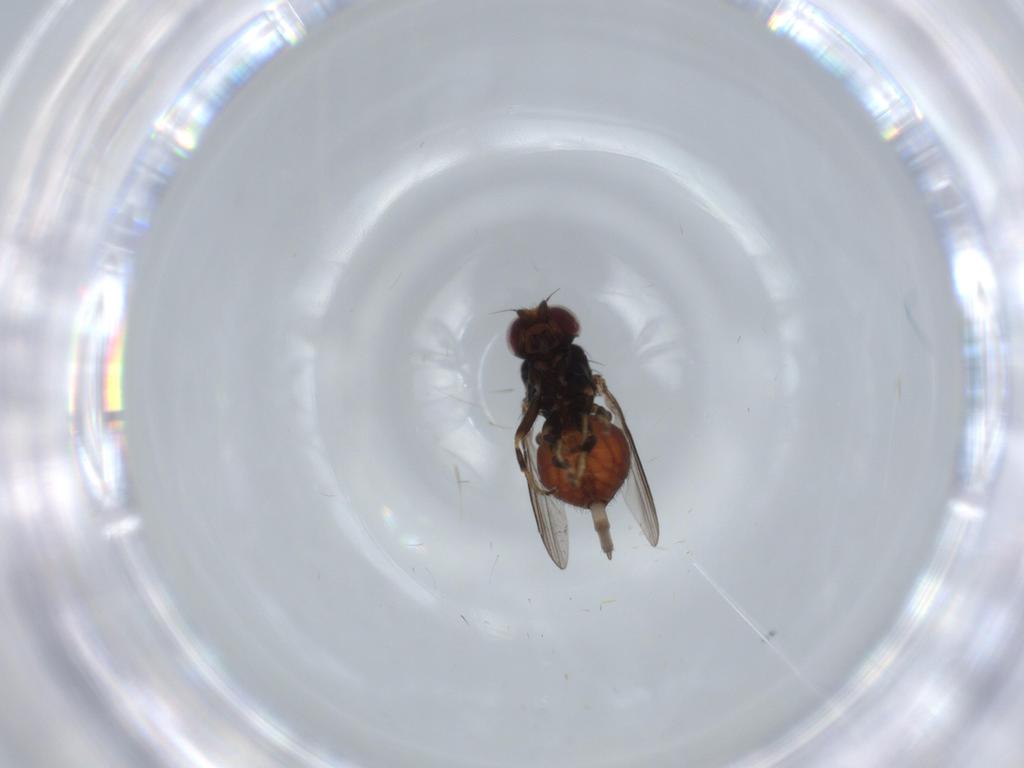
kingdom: Animalia
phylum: Arthropoda
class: Insecta
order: Diptera
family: Chloropidae
